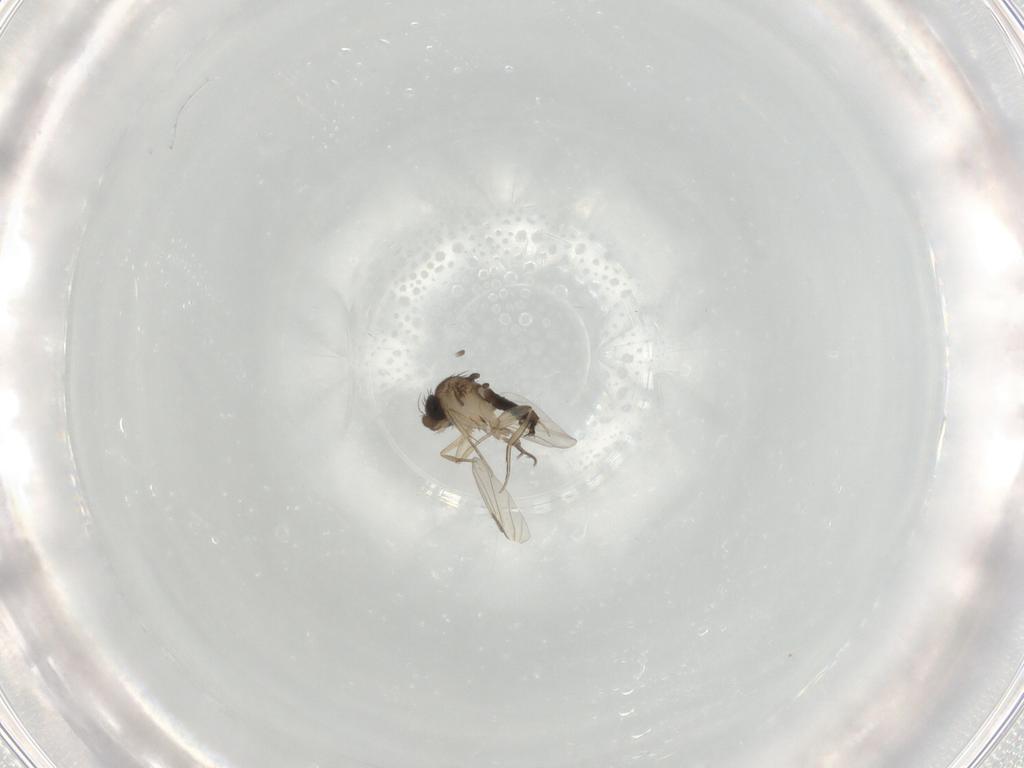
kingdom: Animalia
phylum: Arthropoda
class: Insecta
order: Diptera
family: Phoridae
